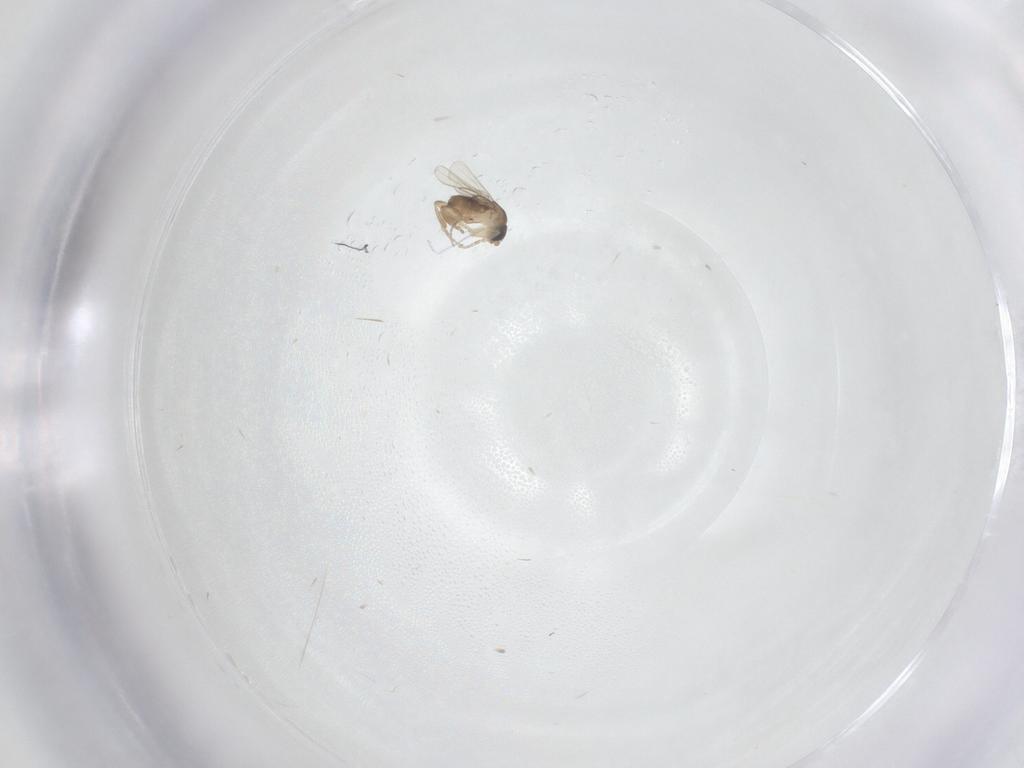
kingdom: Animalia
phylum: Arthropoda
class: Insecta
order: Diptera
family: Phoridae
